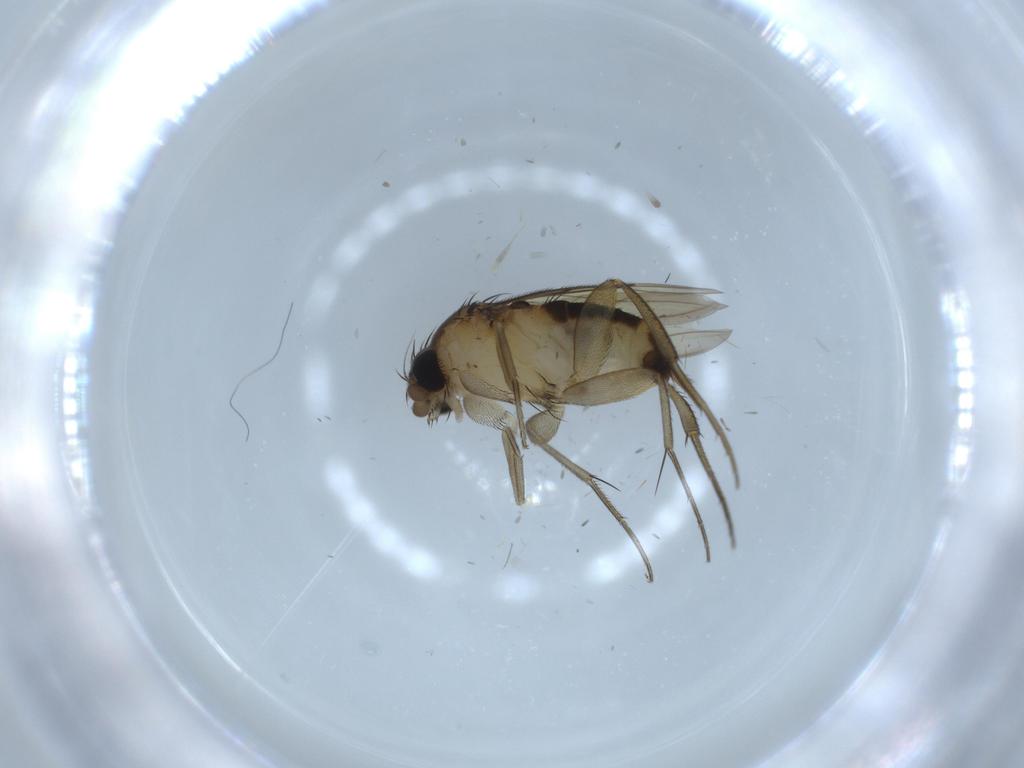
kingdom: Animalia
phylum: Arthropoda
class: Insecta
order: Diptera
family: Phoridae
